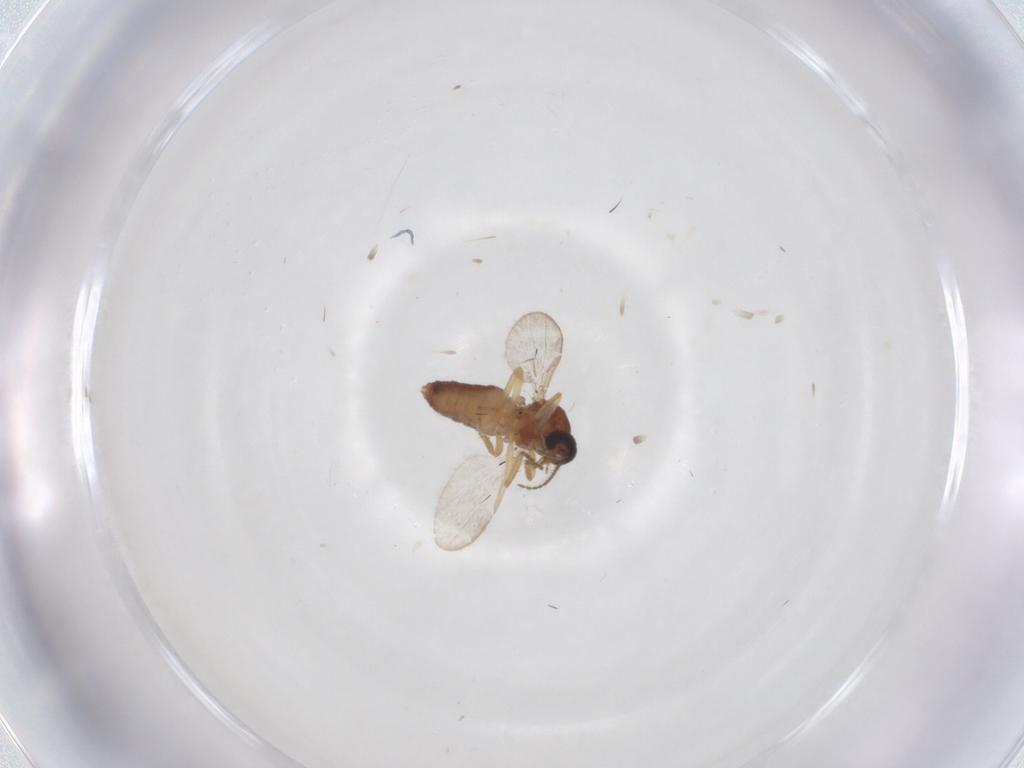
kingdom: Animalia
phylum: Arthropoda
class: Insecta
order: Diptera
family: Ceratopogonidae
